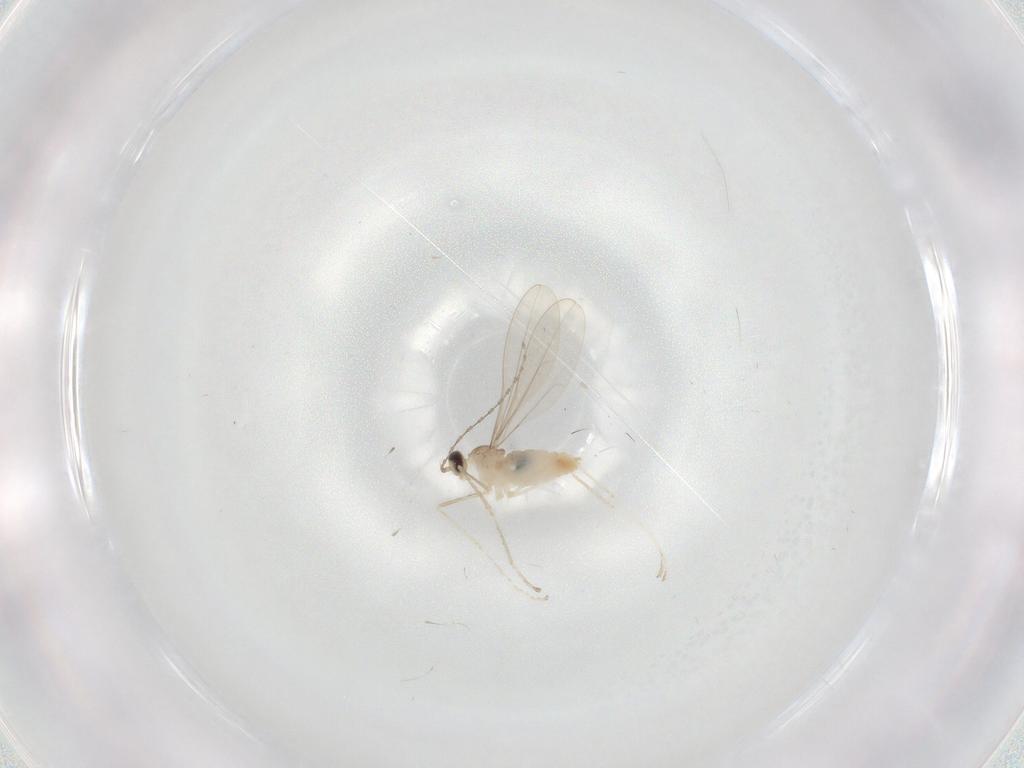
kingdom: Animalia
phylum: Arthropoda
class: Insecta
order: Diptera
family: Cecidomyiidae
